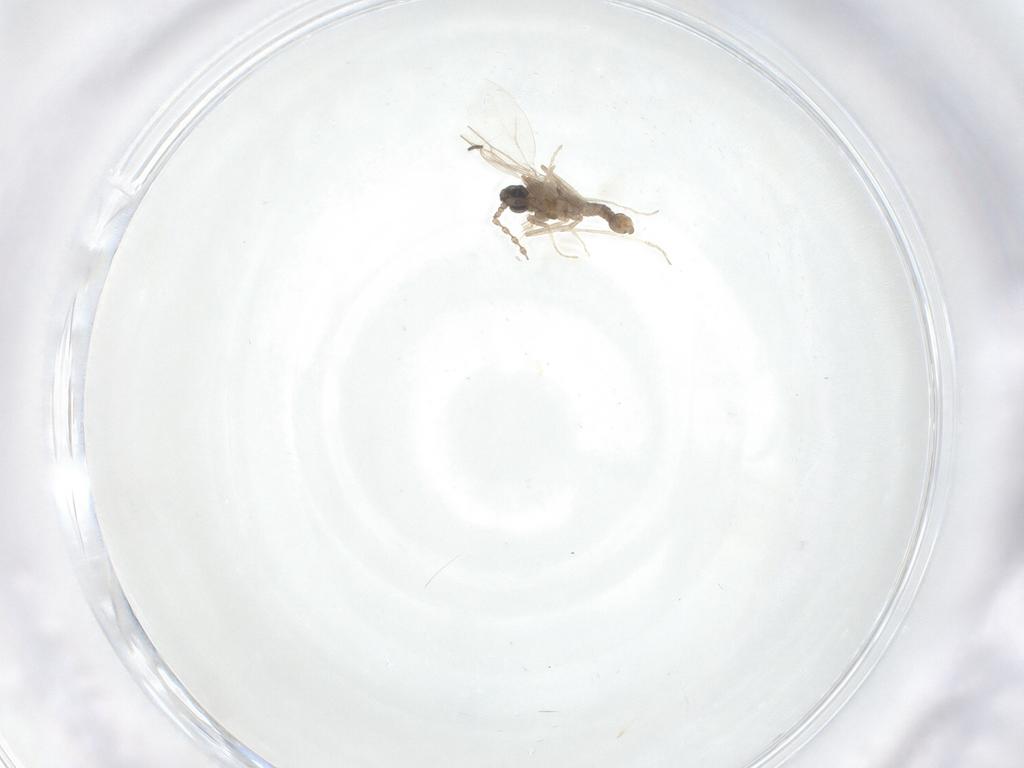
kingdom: Animalia
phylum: Arthropoda
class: Insecta
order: Diptera
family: Cecidomyiidae
